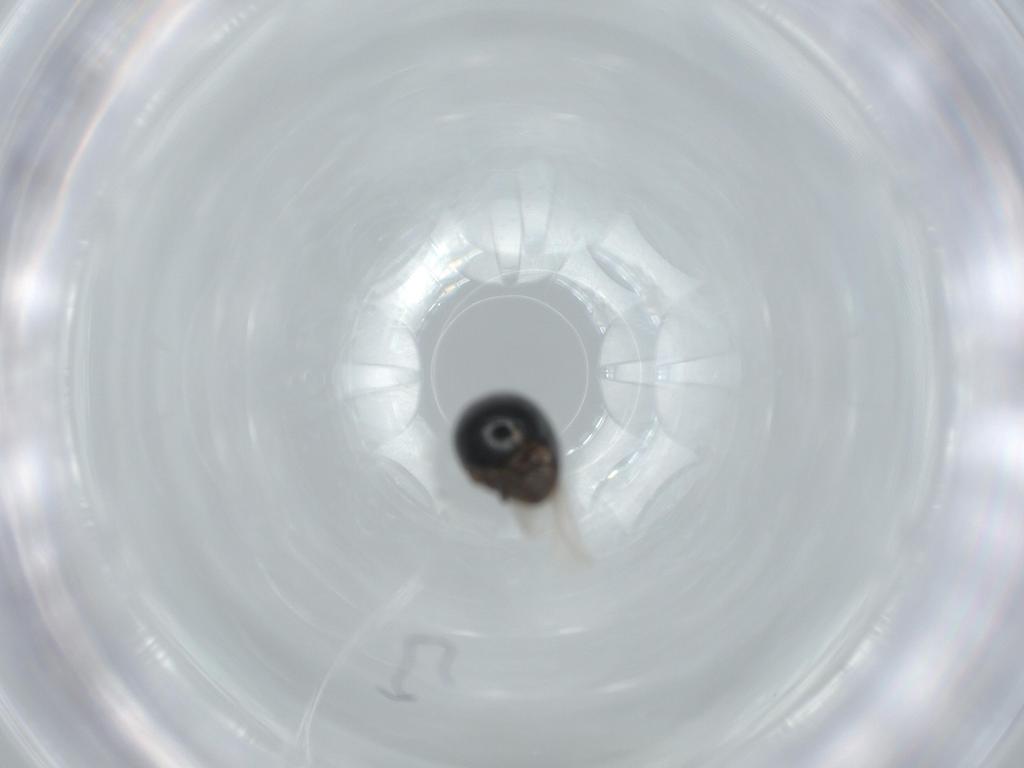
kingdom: Animalia
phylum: Arthropoda
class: Insecta
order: Coleoptera
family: Cybocephalidae
